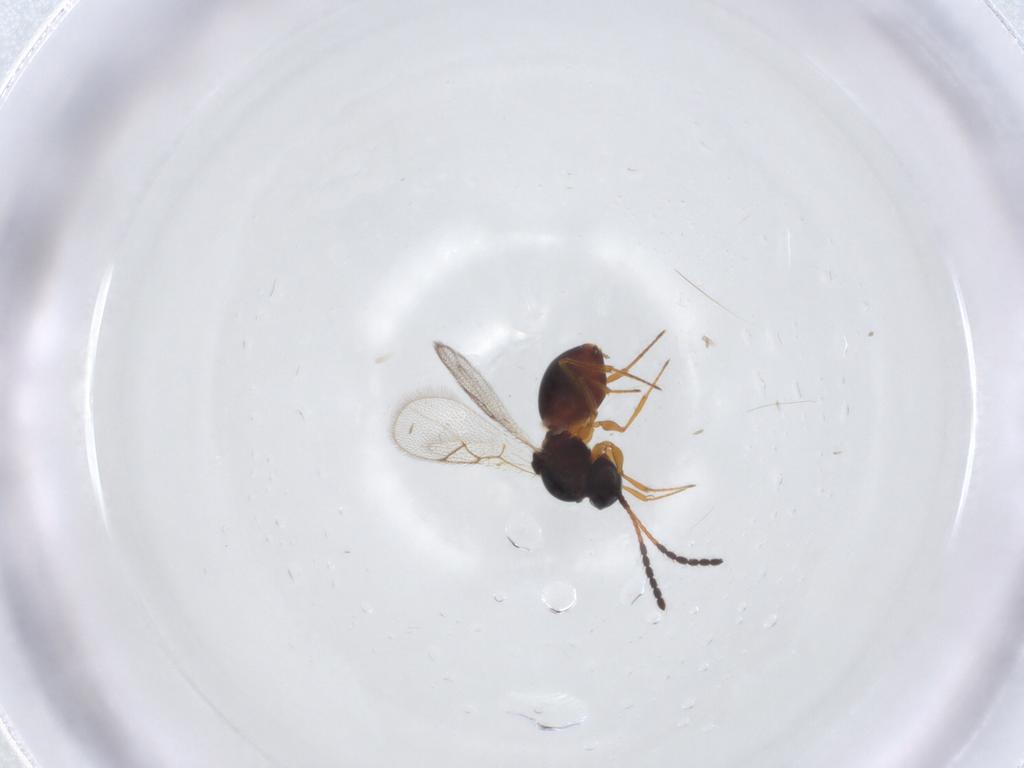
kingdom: Animalia
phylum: Arthropoda
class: Insecta
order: Hymenoptera
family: Figitidae
